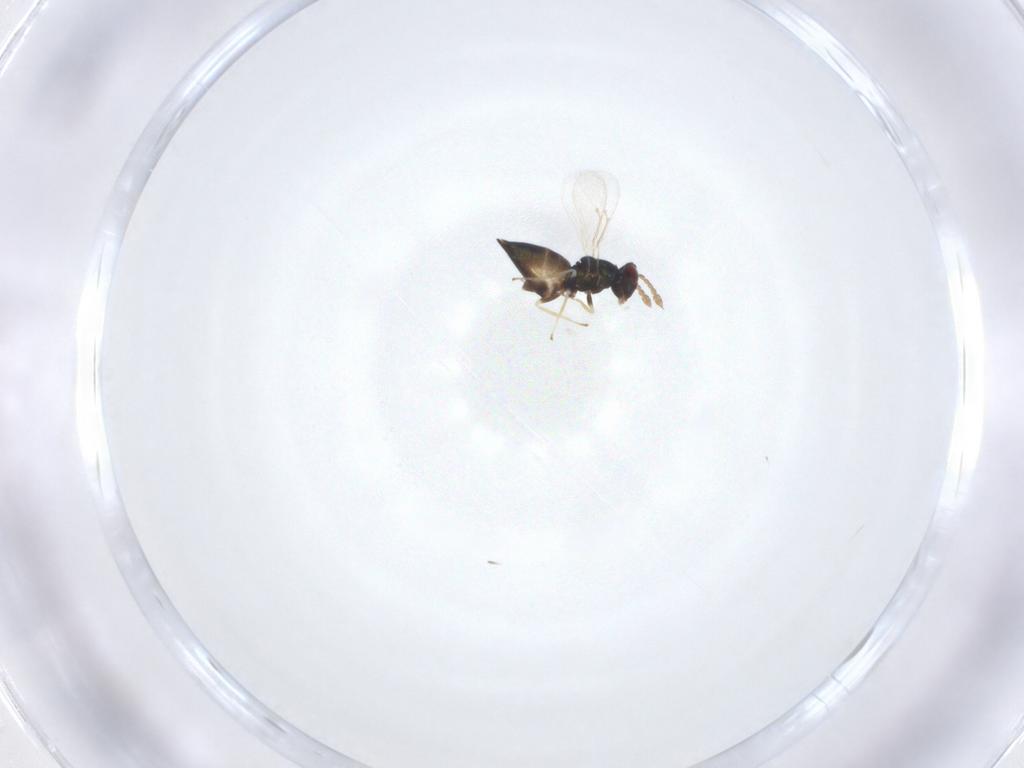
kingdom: Animalia
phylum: Arthropoda
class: Insecta
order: Hymenoptera
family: Eulophidae
